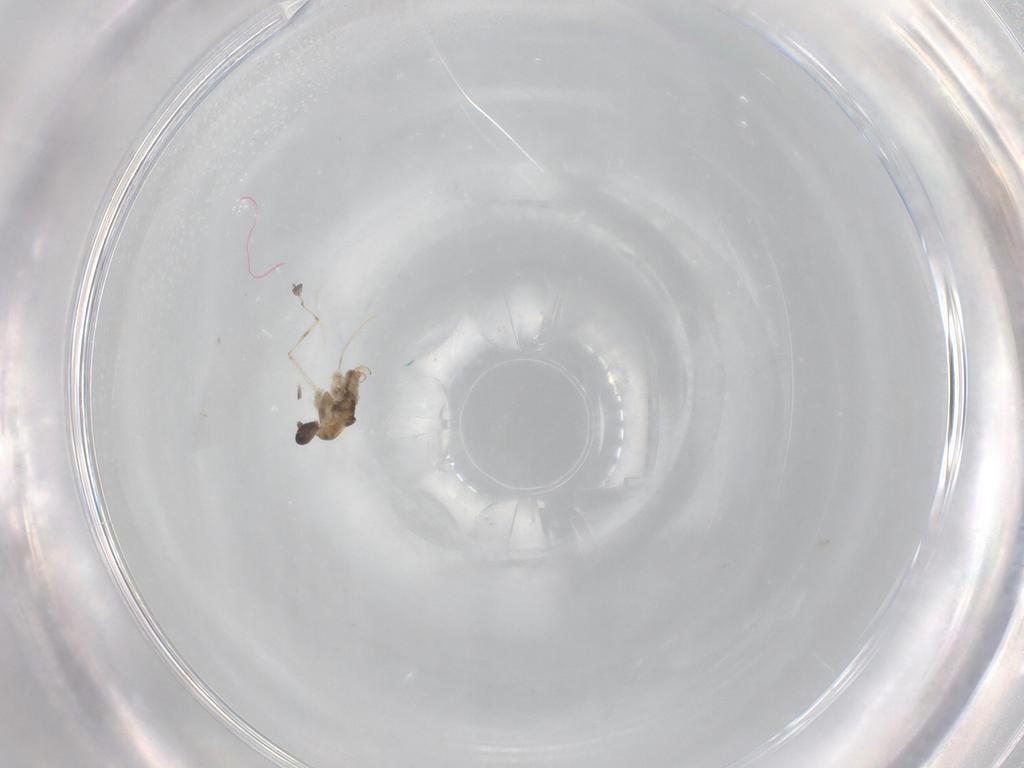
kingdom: Animalia
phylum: Arthropoda
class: Insecta
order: Diptera
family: Cecidomyiidae
